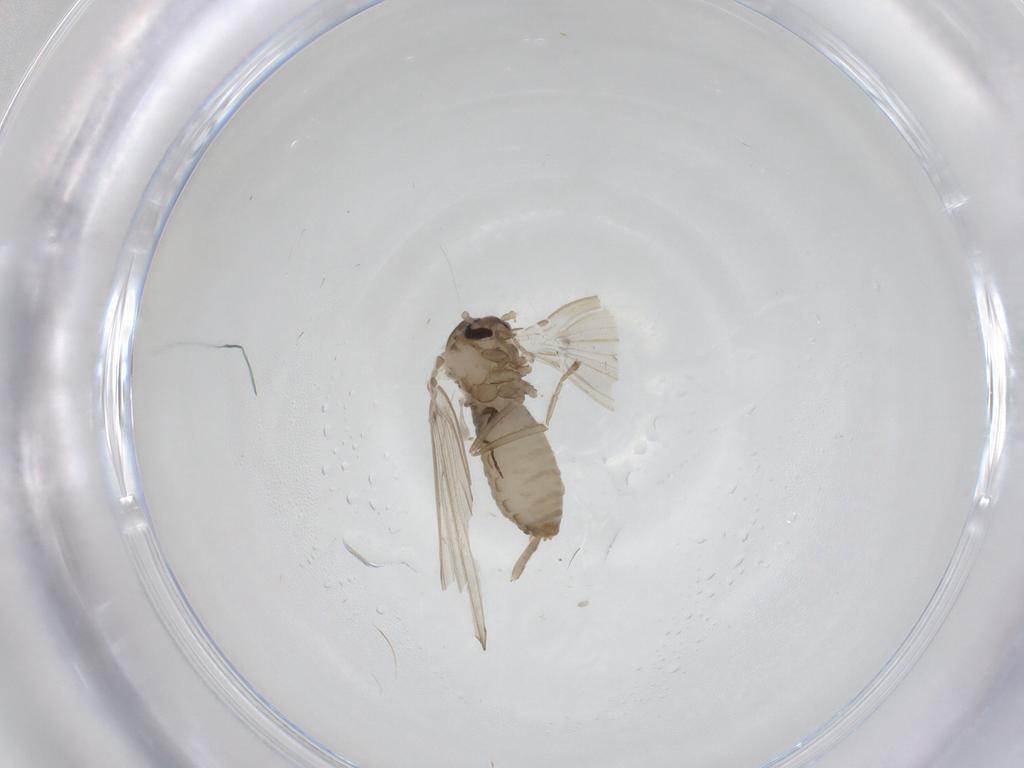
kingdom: Animalia
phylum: Arthropoda
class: Insecta
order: Diptera
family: Psychodidae
